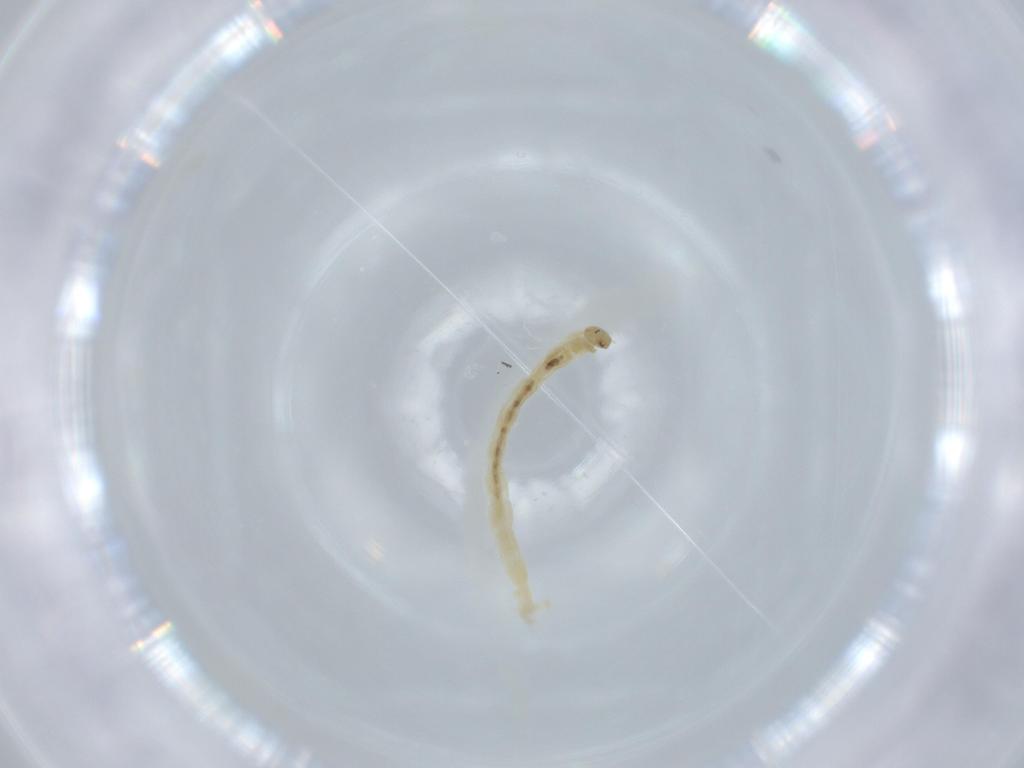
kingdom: Animalia
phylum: Arthropoda
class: Insecta
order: Diptera
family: Chironomidae
